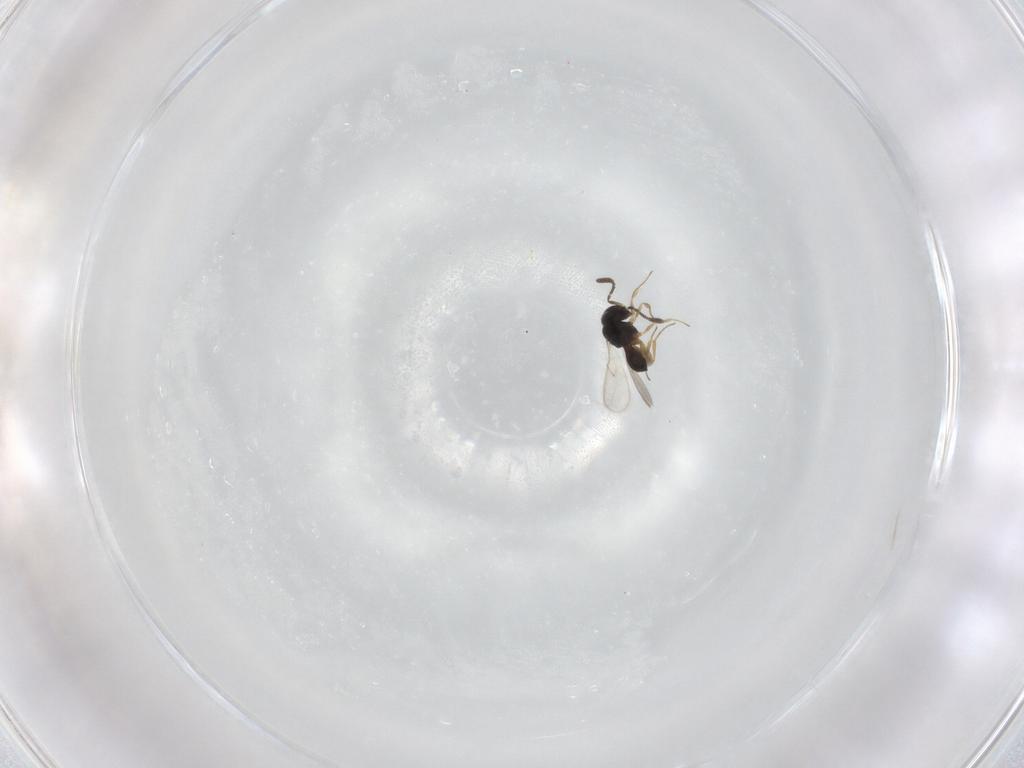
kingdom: Animalia
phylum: Arthropoda
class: Insecta
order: Hymenoptera
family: Scelionidae
